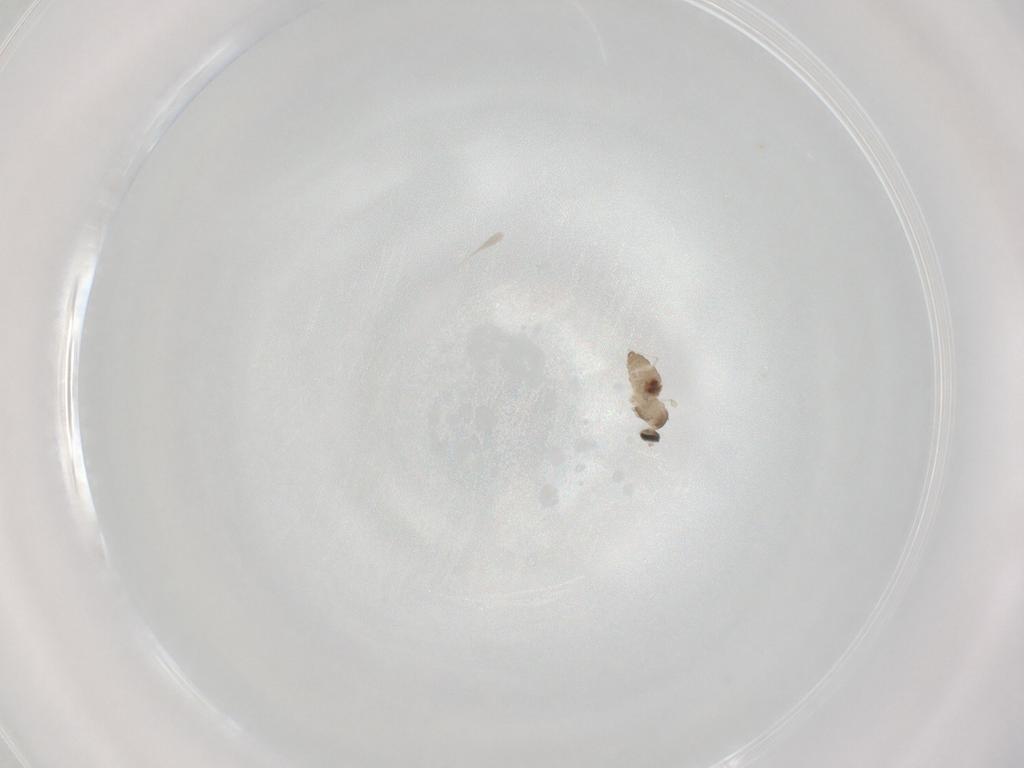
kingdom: Animalia
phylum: Arthropoda
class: Insecta
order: Diptera
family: Cecidomyiidae
